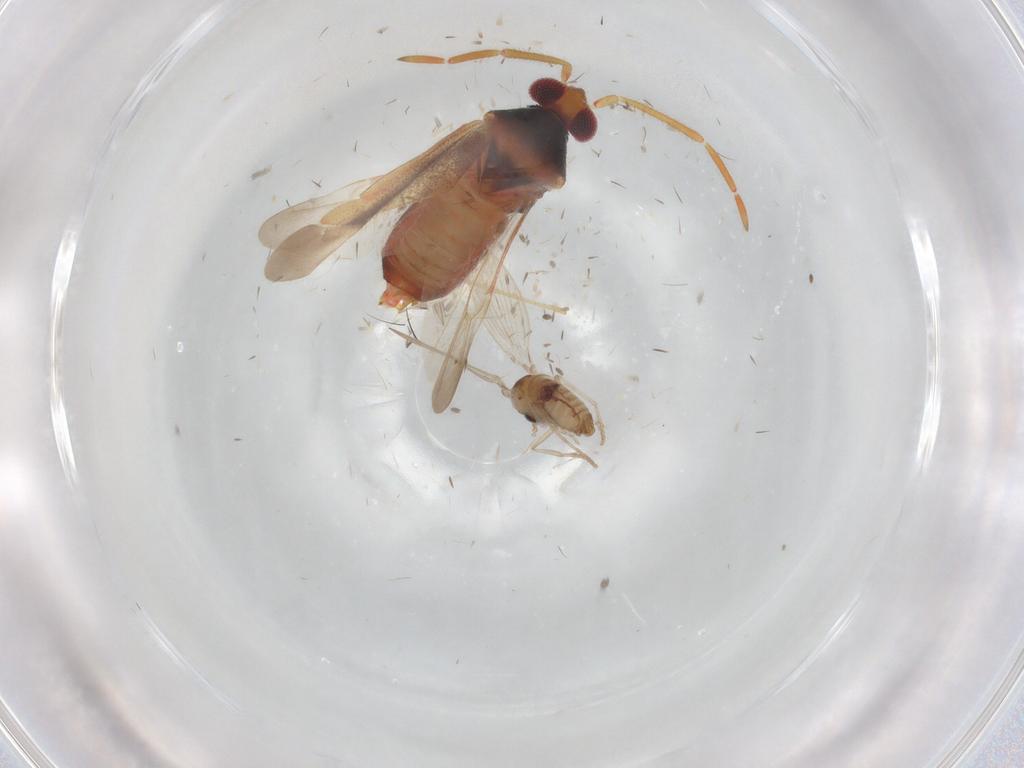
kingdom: Animalia
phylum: Arthropoda
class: Insecta
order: Diptera
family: Psychodidae
